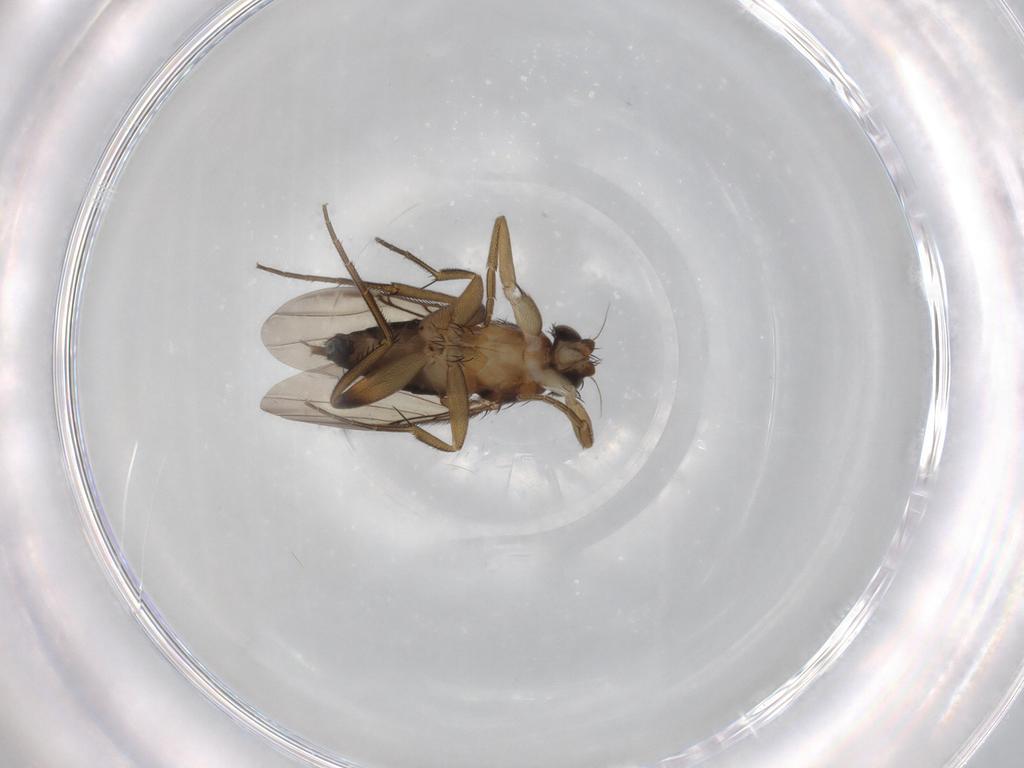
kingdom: Animalia
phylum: Arthropoda
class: Insecta
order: Diptera
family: Phoridae
